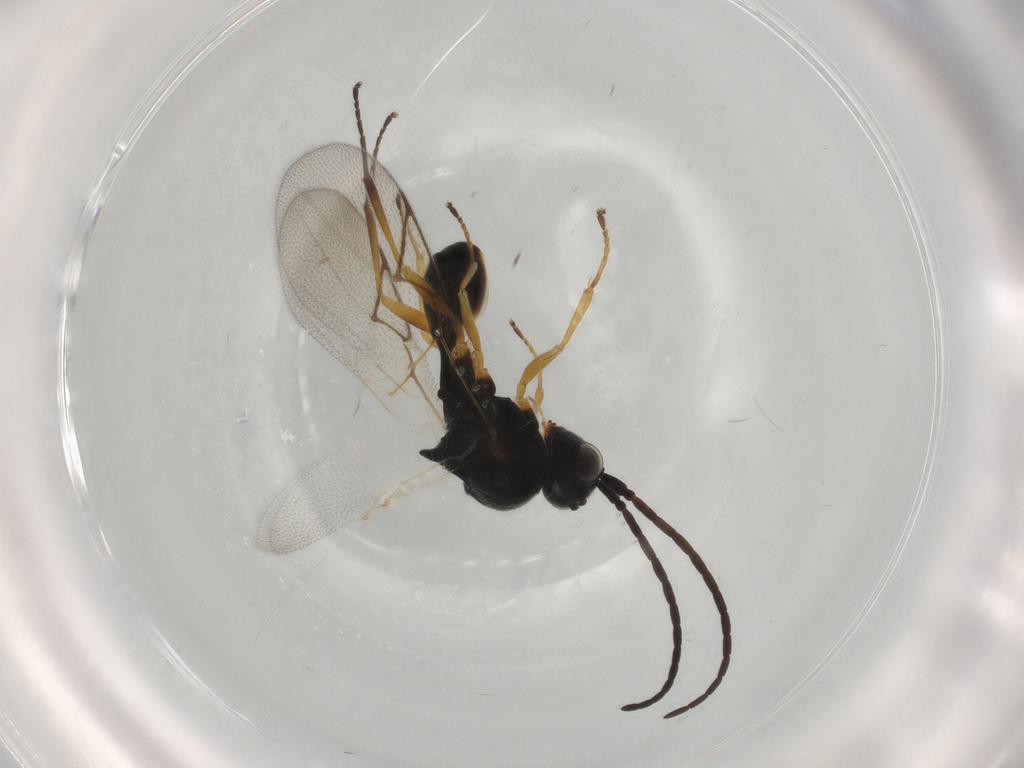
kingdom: Animalia
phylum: Arthropoda
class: Insecta
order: Hymenoptera
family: Figitidae
